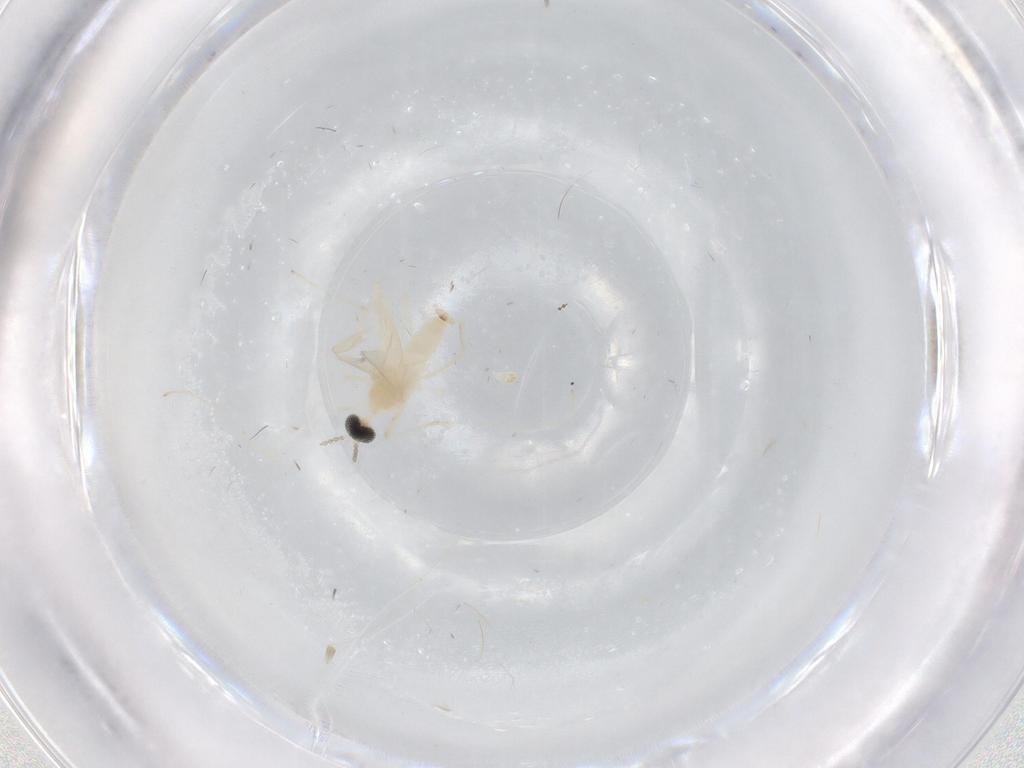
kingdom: Animalia
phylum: Arthropoda
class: Insecta
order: Diptera
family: Cecidomyiidae
